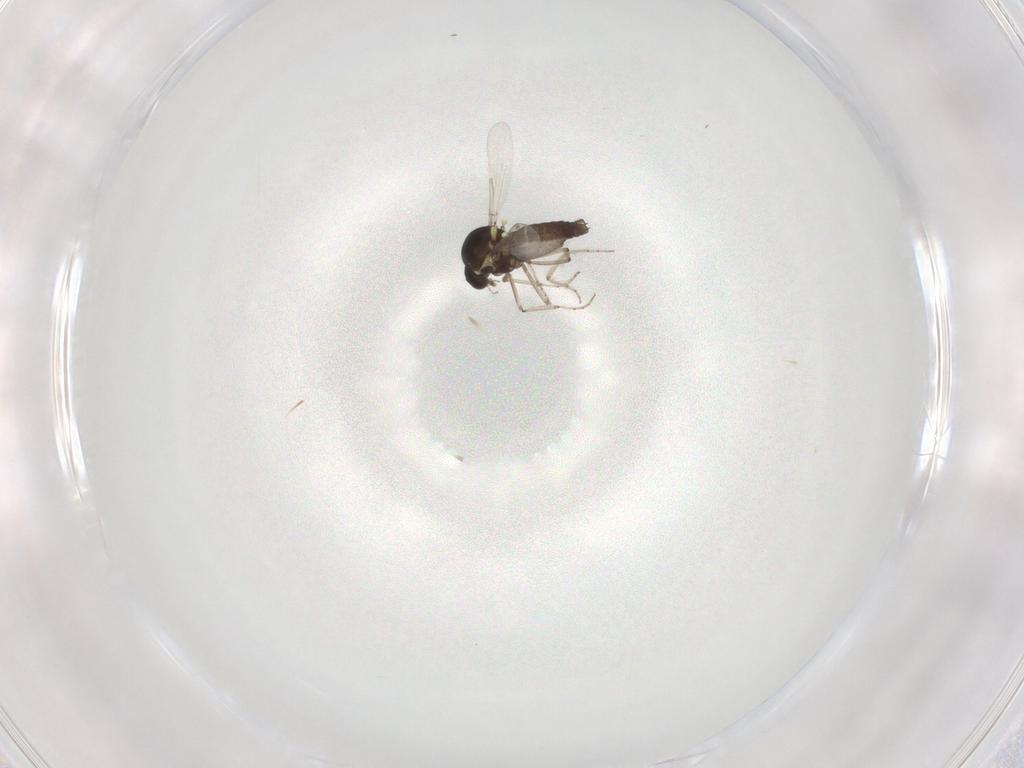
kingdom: Animalia
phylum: Arthropoda
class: Insecta
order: Diptera
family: Ceratopogonidae
